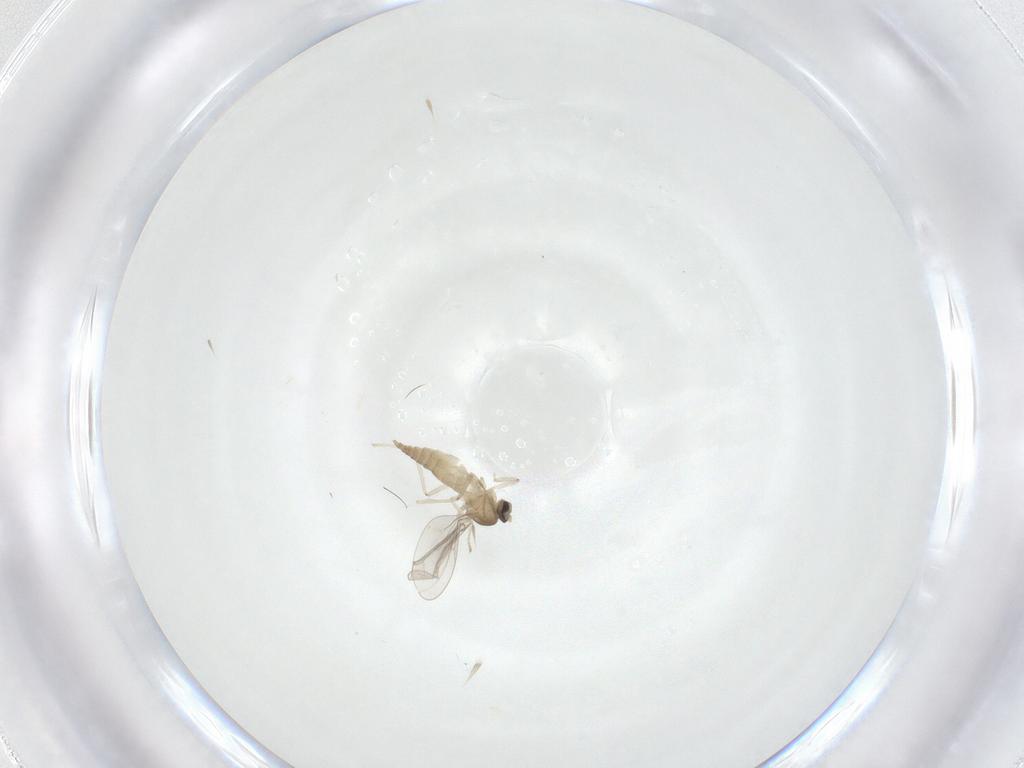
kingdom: Animalia
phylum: Arthropoda
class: Insecta
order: Diptera
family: Cecidomyiidae
